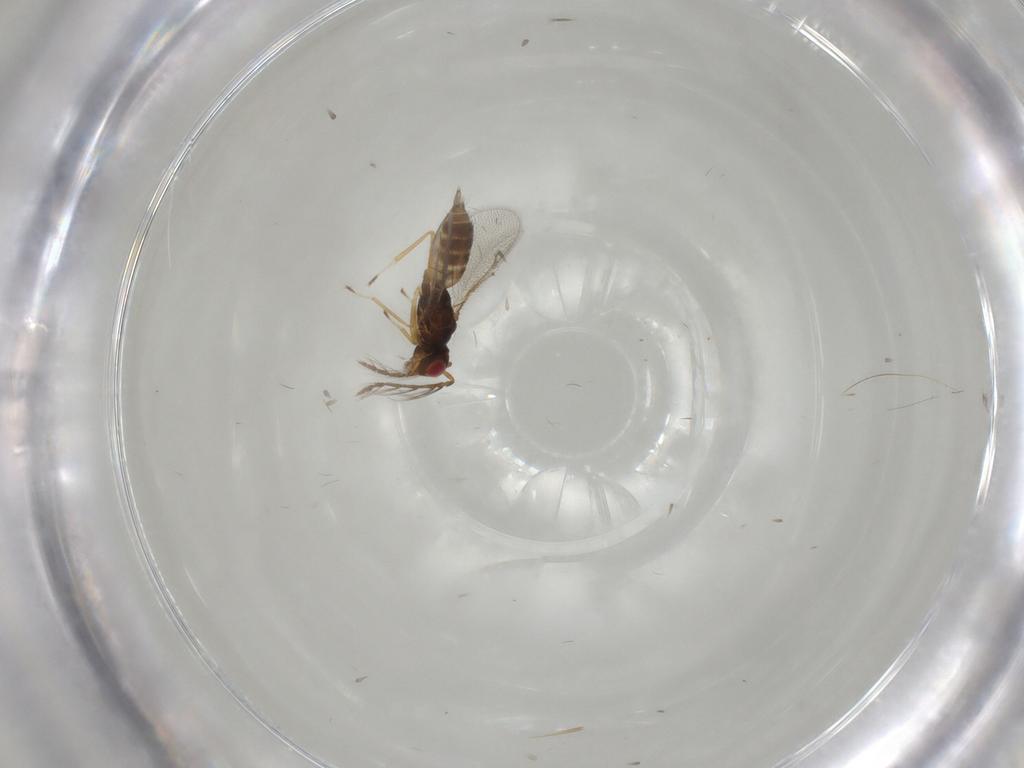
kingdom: Animalia
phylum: Arthropoda
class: Insecta
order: Hymenoptera
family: Eulophidae
